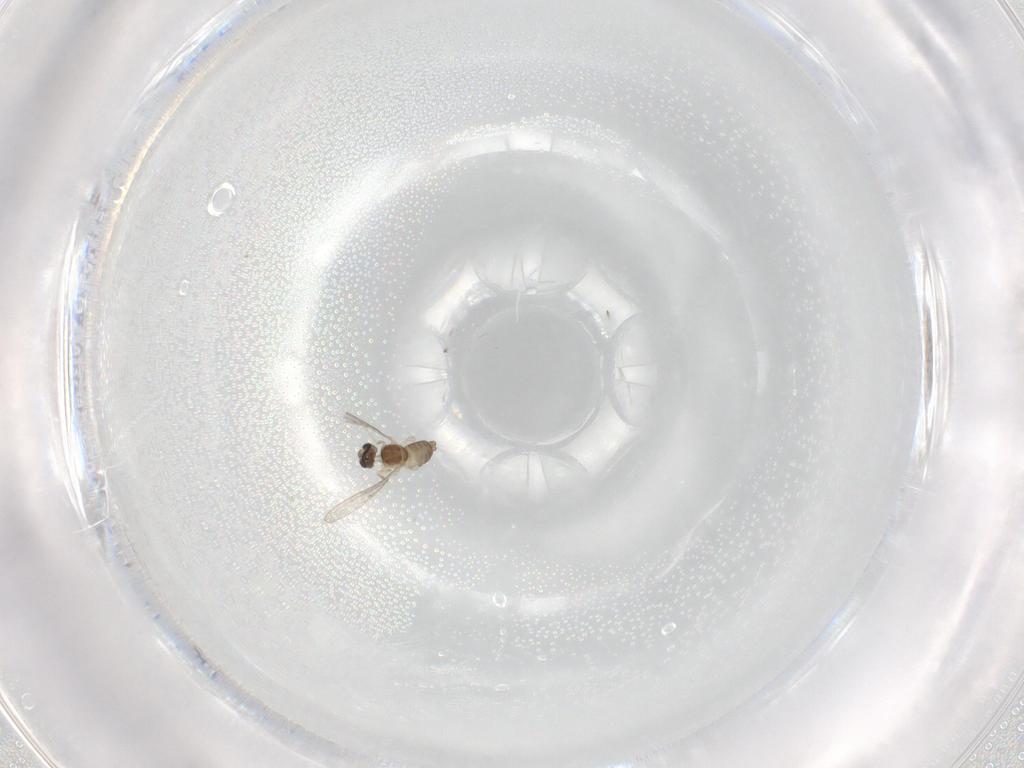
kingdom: Animalia
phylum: Arthropoda
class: Insecta
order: Diptera
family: Cecidomyiidae
